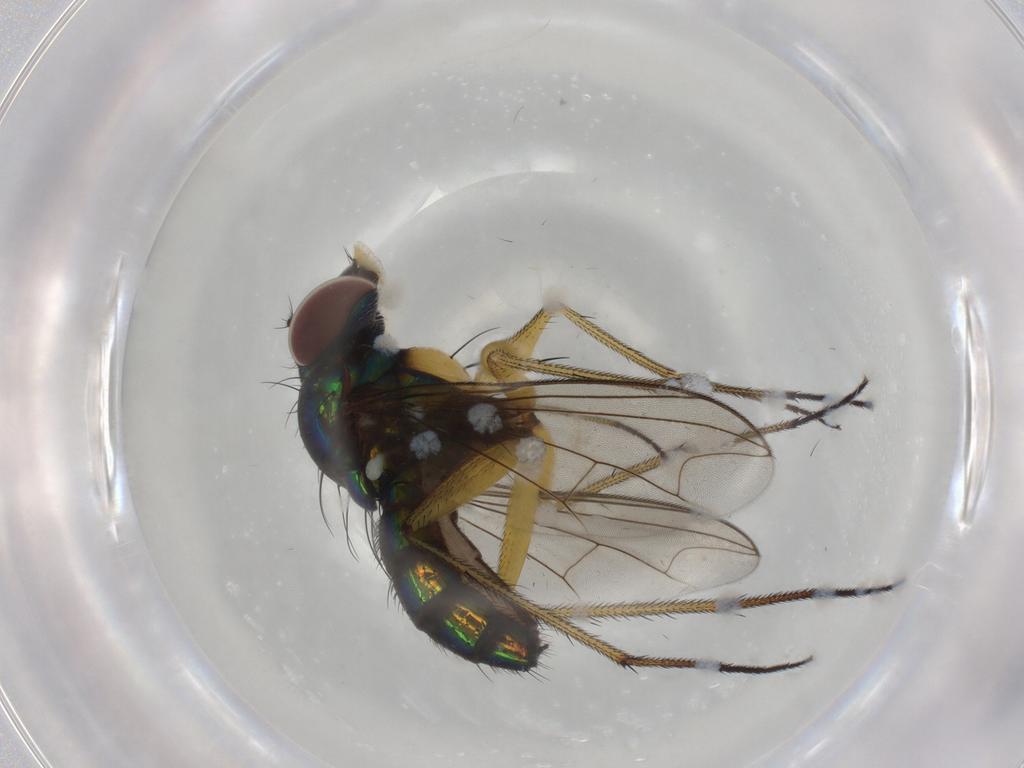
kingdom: Animalia
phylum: Arthropoda
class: Insecta
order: Diptera
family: Dolichopodidae
